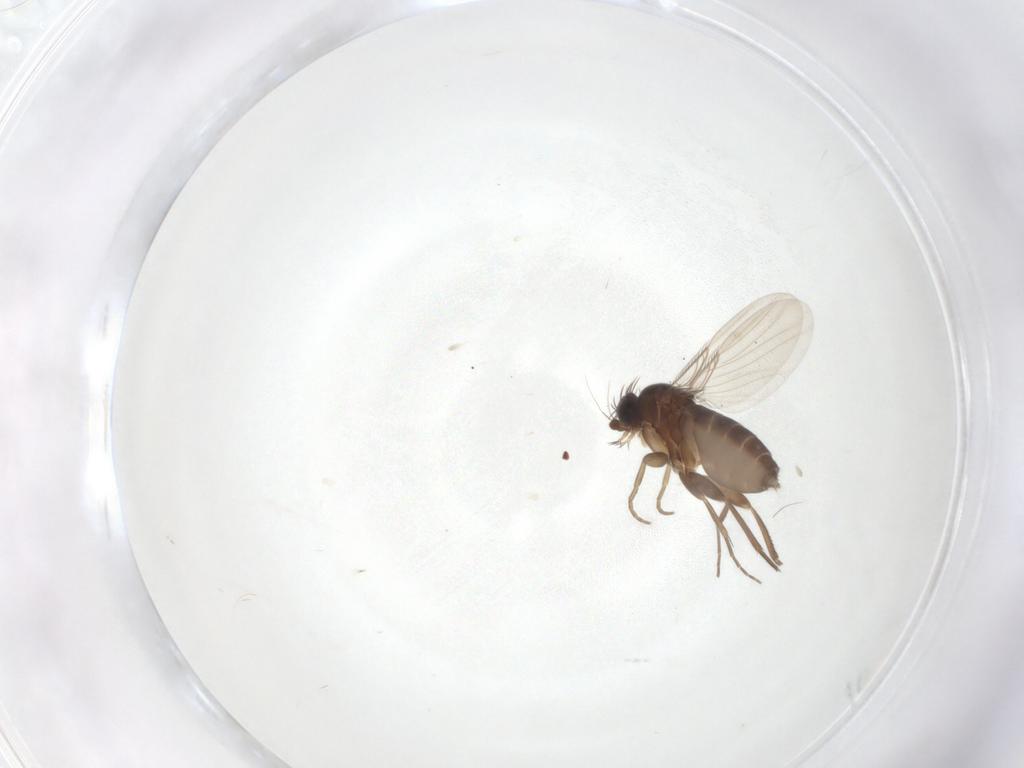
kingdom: Animalia
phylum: Arthropoda
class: Insecta
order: Diptera
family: Phoridae
